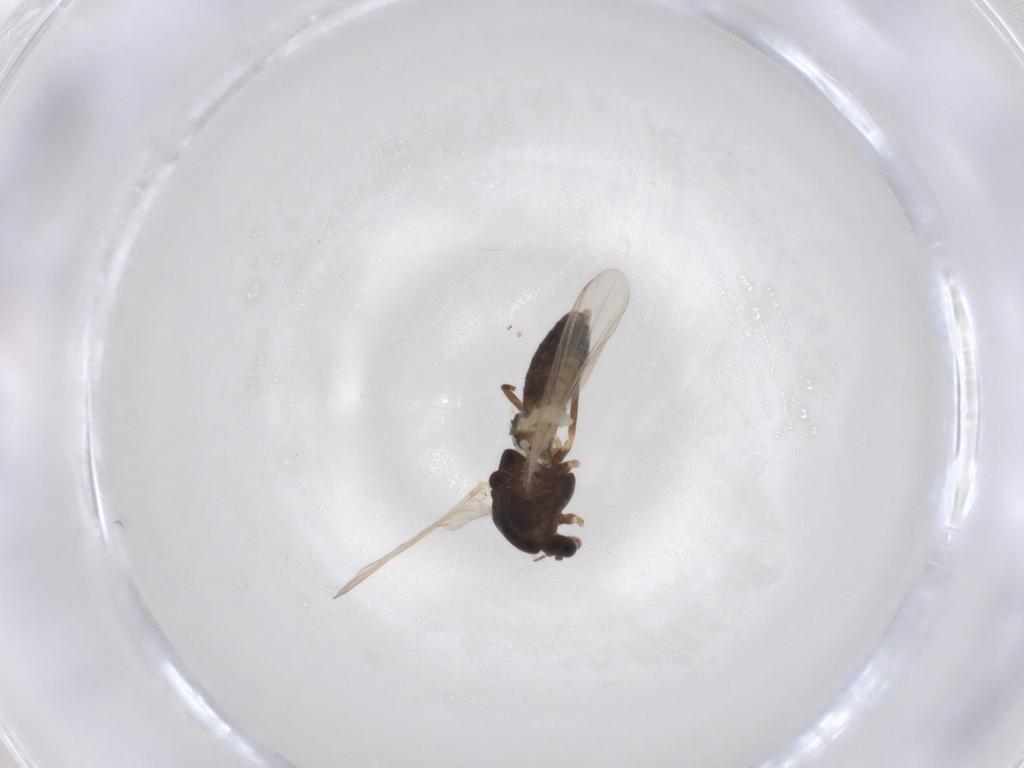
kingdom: Animalia
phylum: Arthropoda
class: Insecta
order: Diptera
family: Chironomidae
